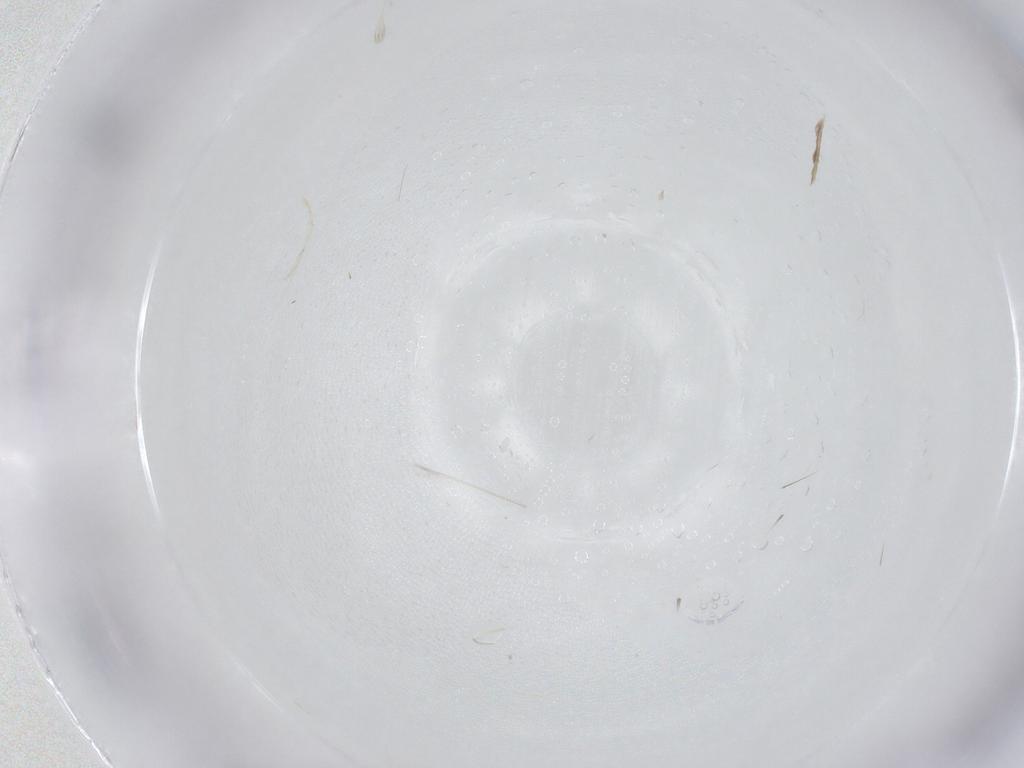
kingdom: Animalia
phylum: Arthropoda
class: Arachnida
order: Trombidiformes
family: Erythraeidae
